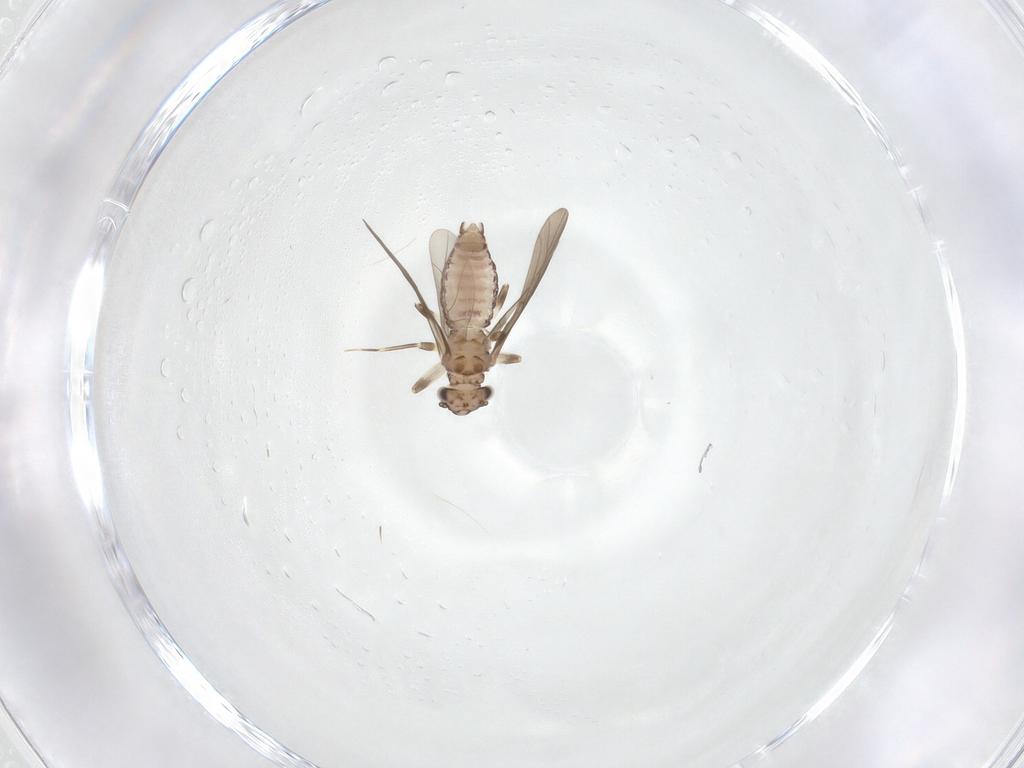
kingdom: Animalia
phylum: Arthropoda
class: Insecta
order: Psocodea
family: Lepidopsocidae
